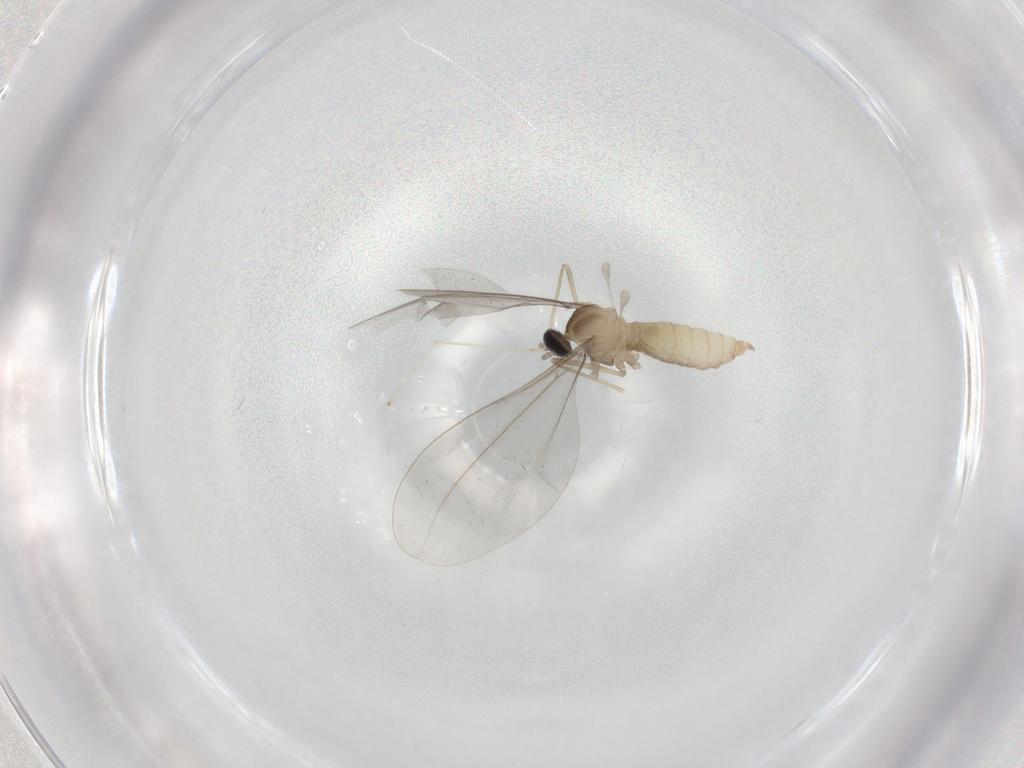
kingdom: Animalia
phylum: Arthropoda
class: Insecta
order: Diptera
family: Cecidomyiidae
